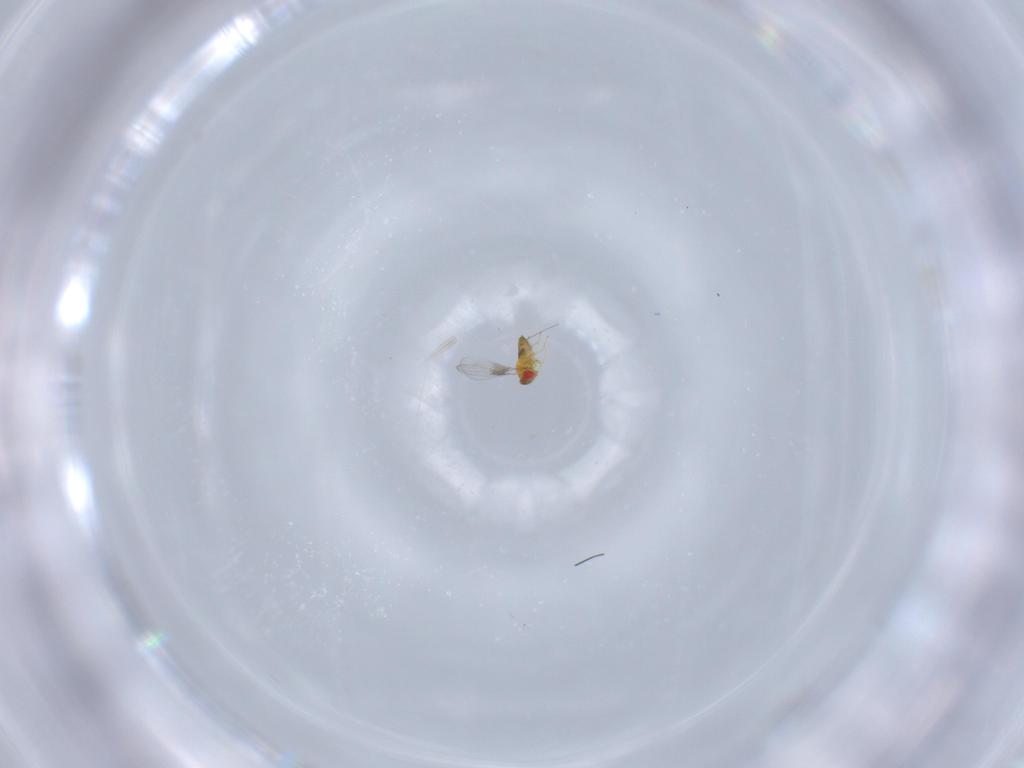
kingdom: Animalia
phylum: Arthropoda
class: Insecta
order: Hymenoptera
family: Trichogrammatidae
